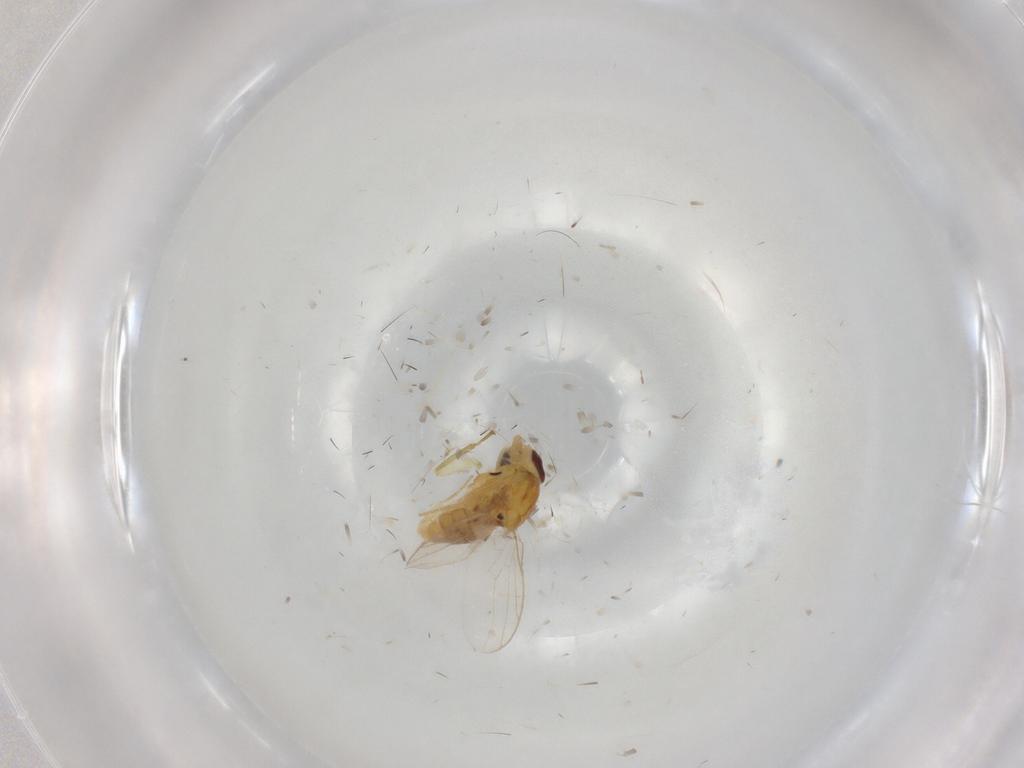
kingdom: Animalia
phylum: Arthropoda
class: Insecta
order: Diptera
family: Chloropidae
